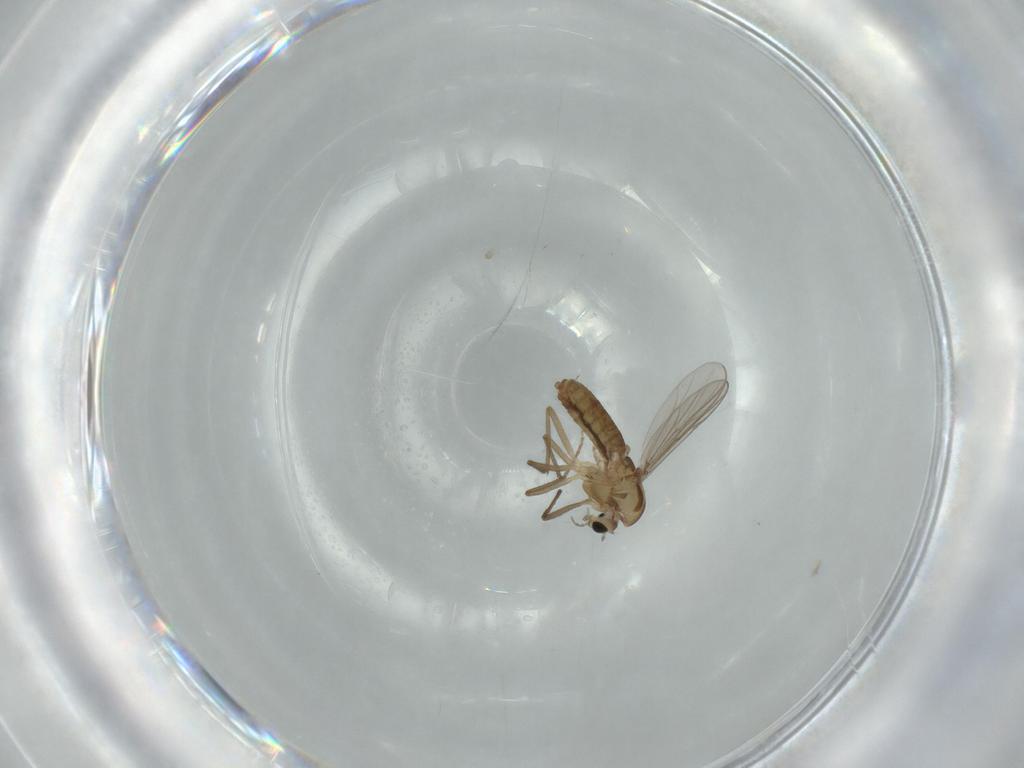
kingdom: Animalia
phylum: Arthropoda
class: Insecta
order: Diptera
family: Chironomidae
